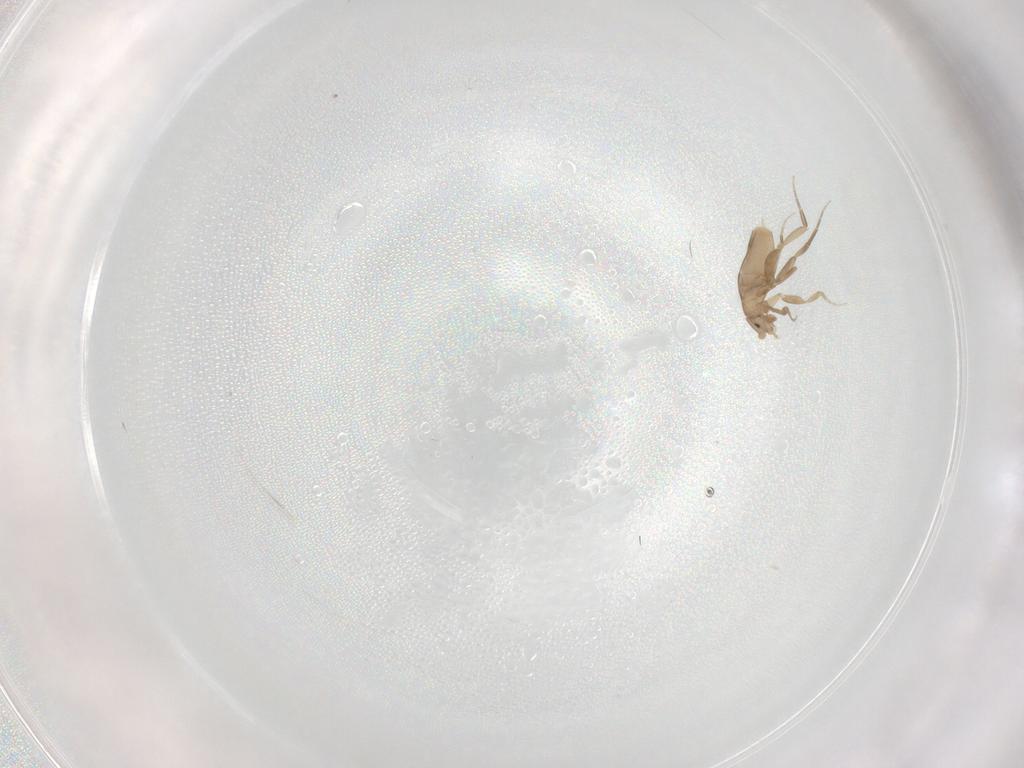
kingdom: Animalia
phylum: Arthropoda
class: Insecta
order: Diptera
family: Phoridae
